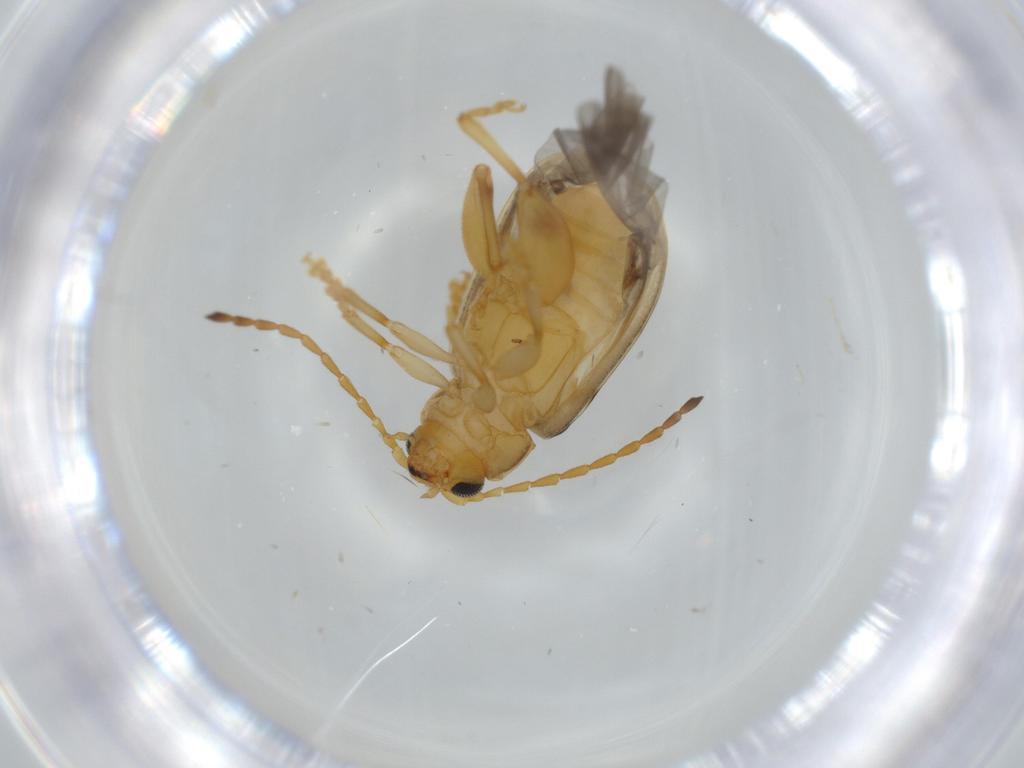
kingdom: Animalia
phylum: Arthropoda
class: Insecta
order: Coleoptera
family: Chrysomelidae
